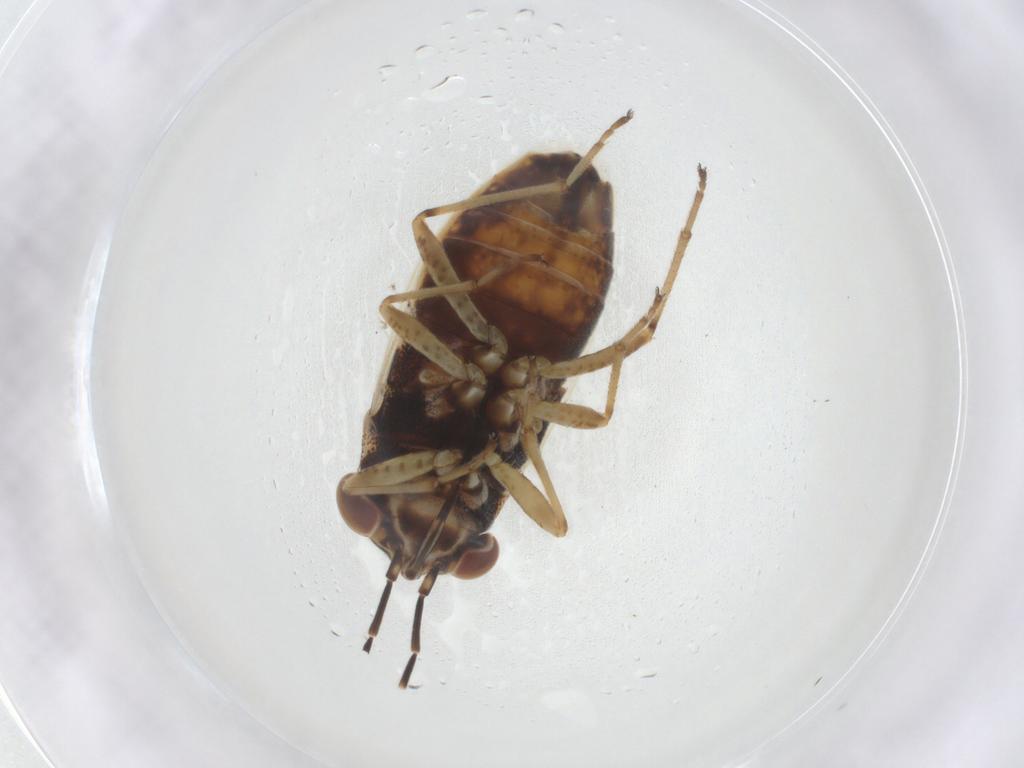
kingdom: Animalia
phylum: Arthropoda
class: Insecta
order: Hemiptera
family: Geocoridae
